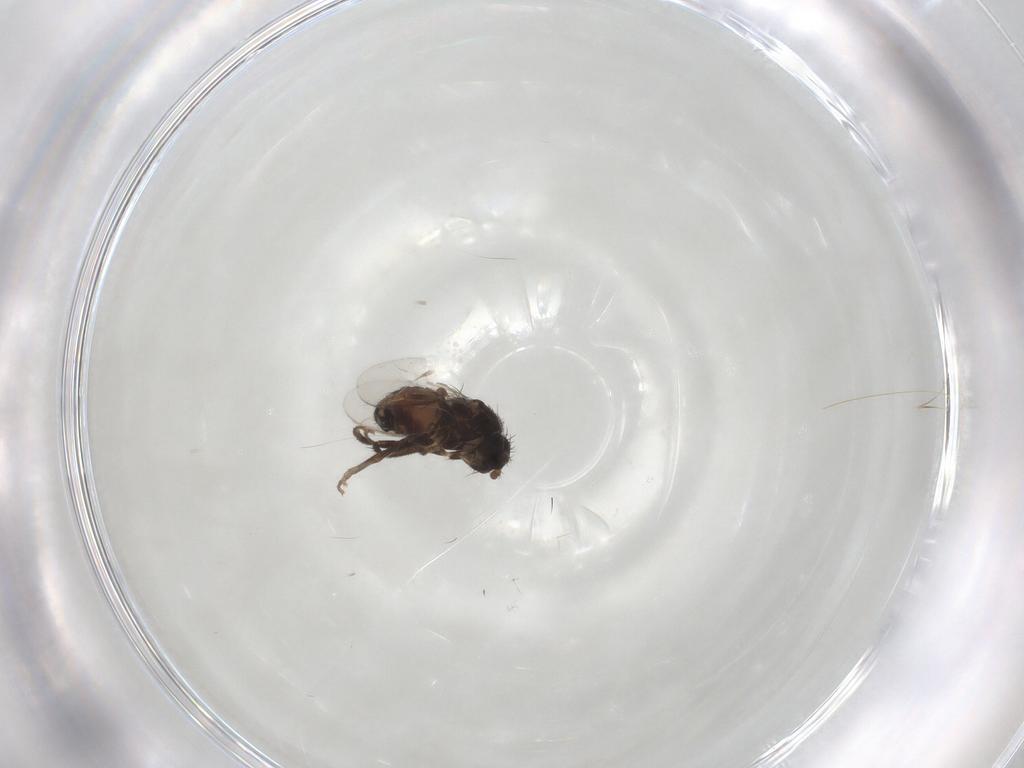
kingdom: Animalia
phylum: Arthropoda
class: Insecta
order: Diptera
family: Sphaeroceridae
